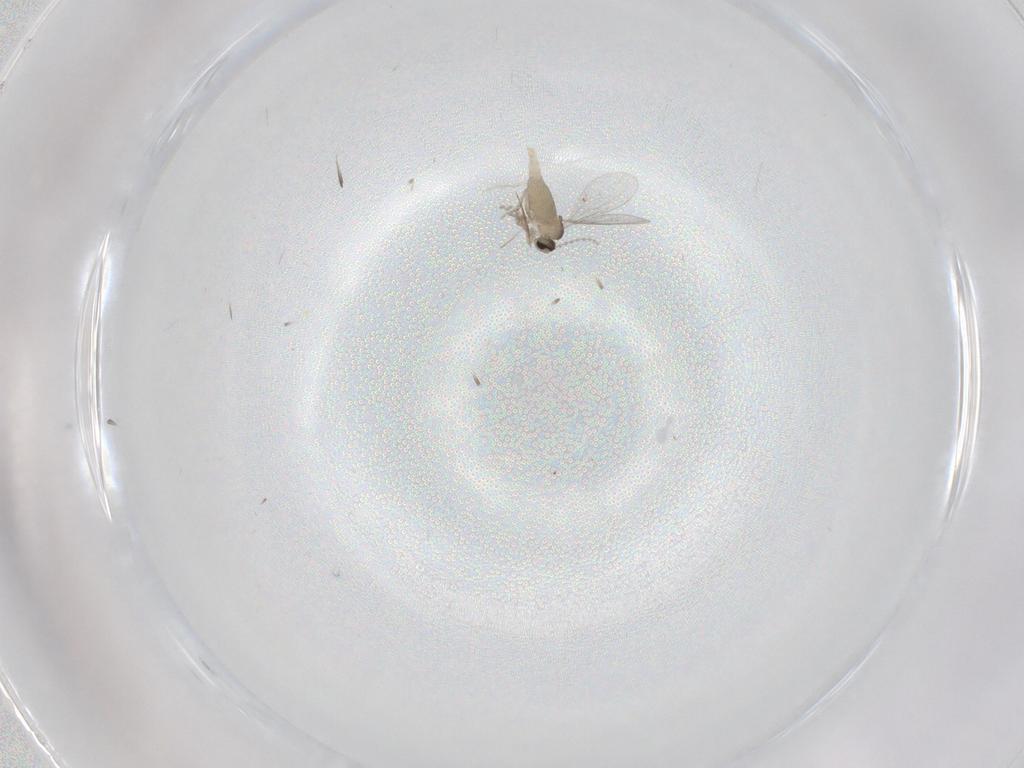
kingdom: Animalia
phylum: Arthropoda
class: Insecta
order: Diptera
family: Cecidomyiidae
